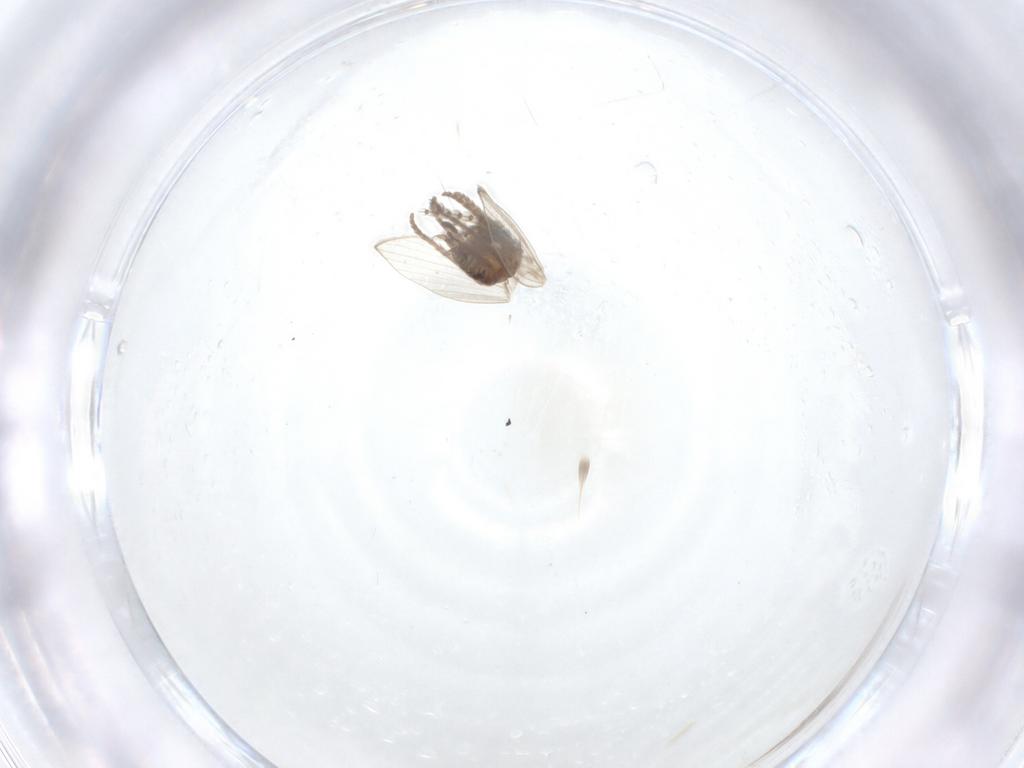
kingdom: Animalia
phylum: Arthropoda
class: Insecta
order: Diptera
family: Psychodidae
